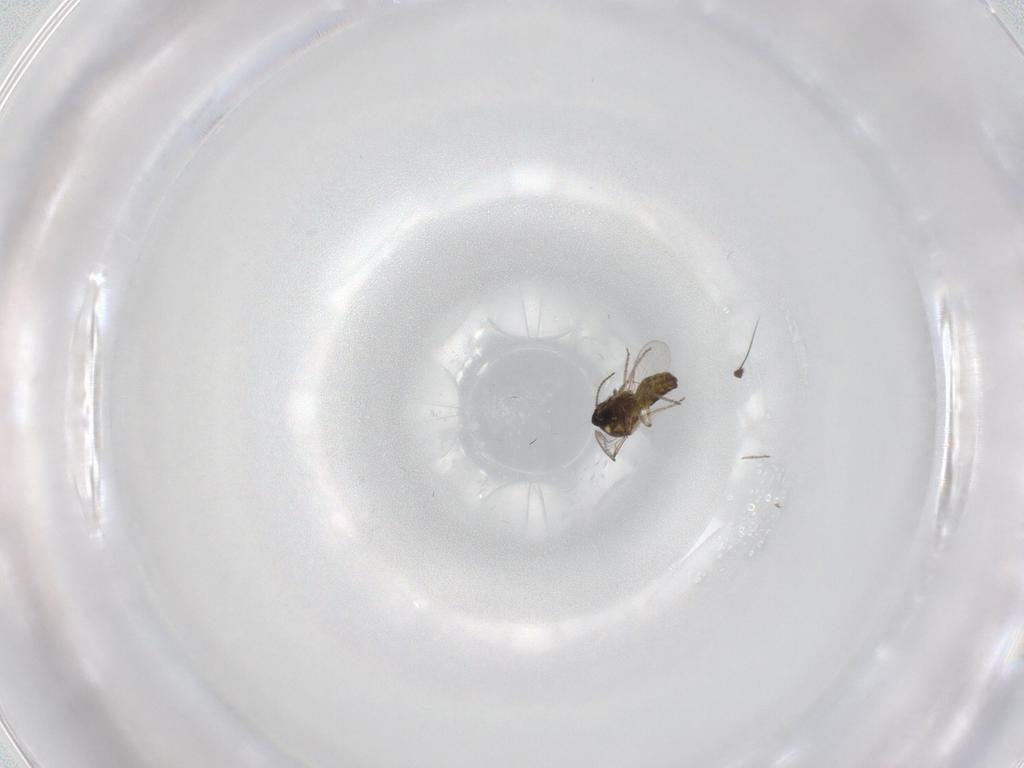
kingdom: Animalia
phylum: Arthropoda
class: Insecta
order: Diptera
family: Ceratopogonidae
